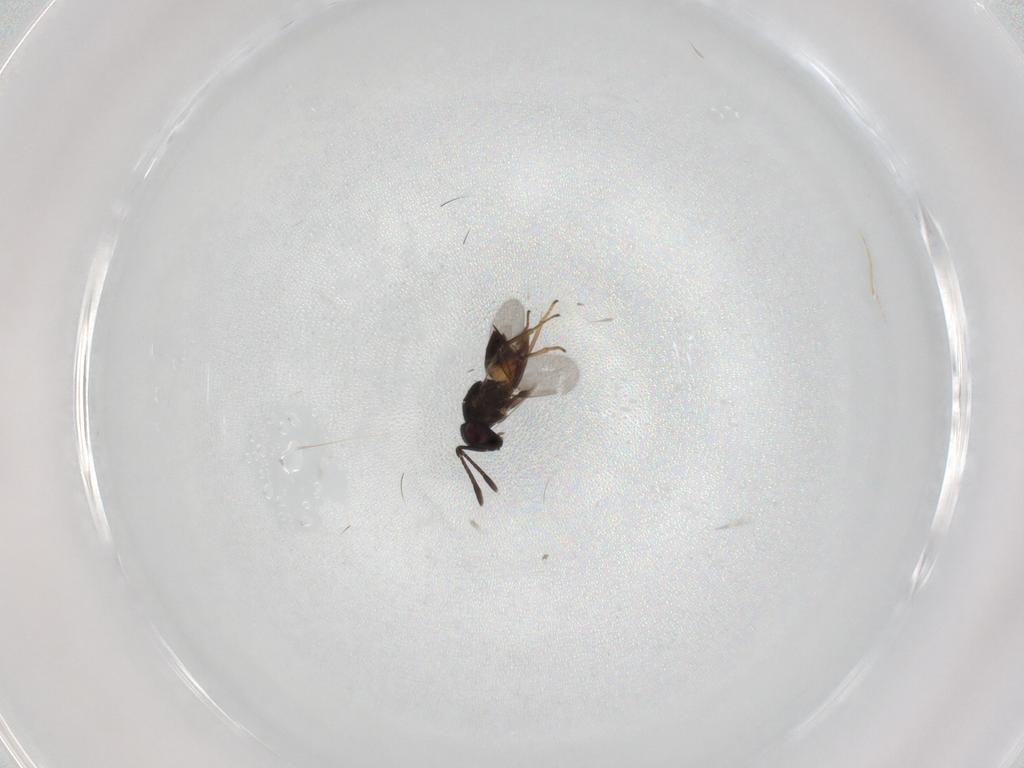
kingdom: Animalia
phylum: Arthropoda
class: Insecta
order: Hymenoptera
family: Encyrtidae
